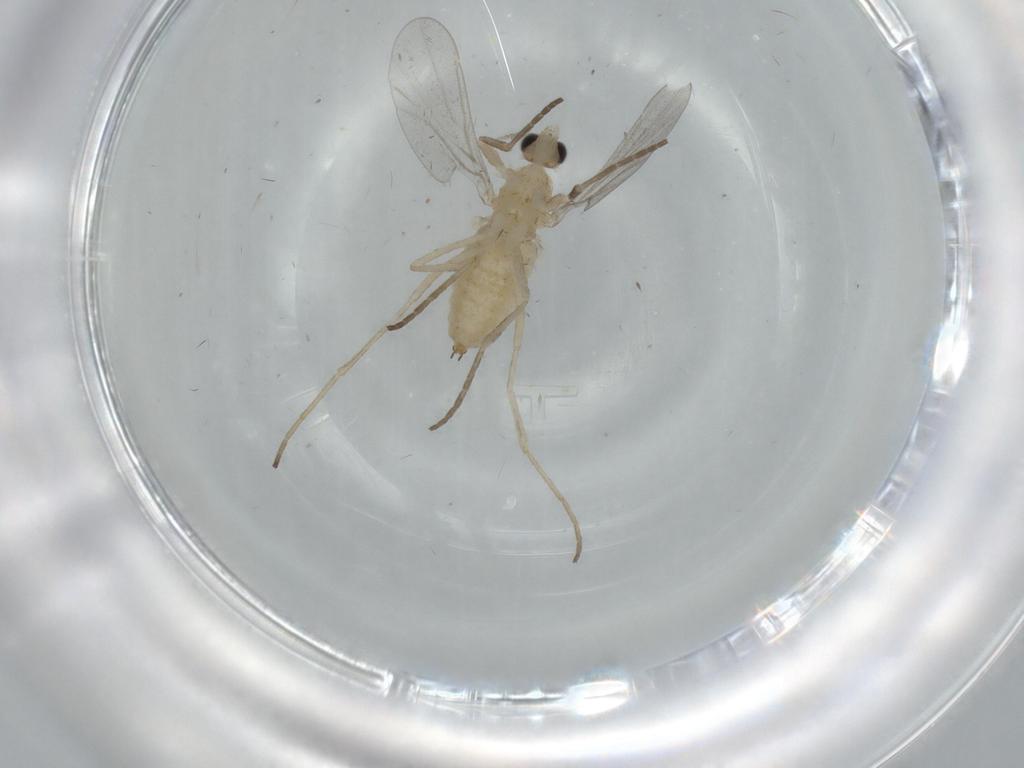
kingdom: Animalia
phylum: Arthropoda
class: Insecta
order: Diptera
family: Cecidomyiidae
